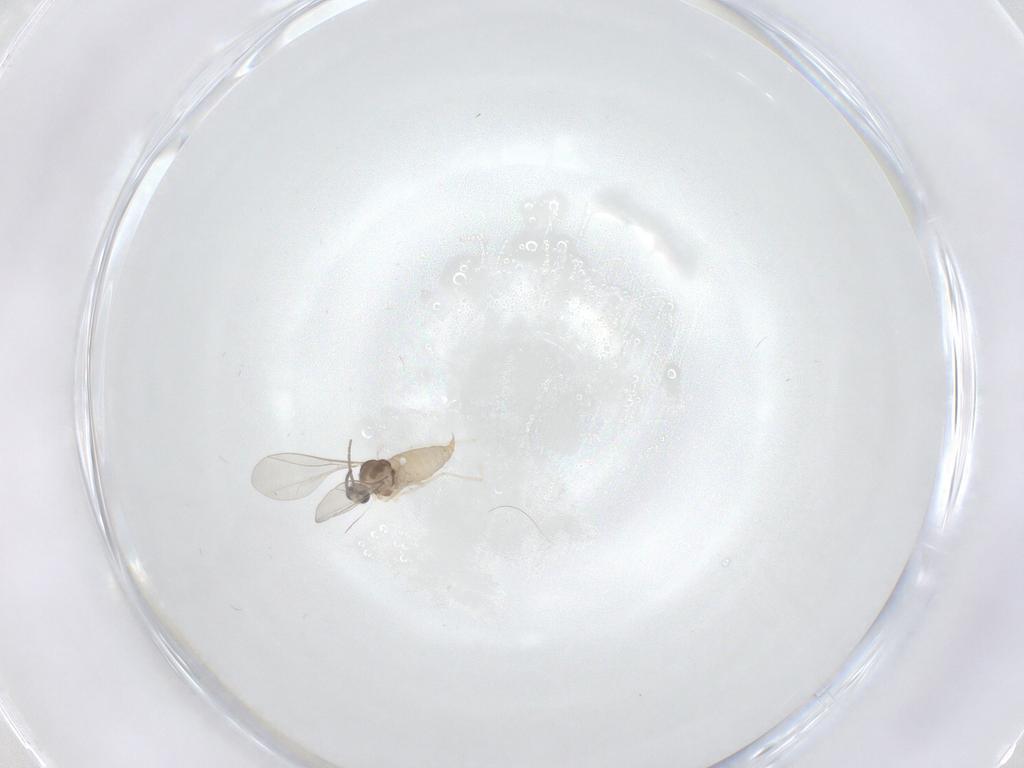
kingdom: Animalia
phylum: Arthropoda
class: Insecta
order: Diptera
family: Cecidomyiidae
